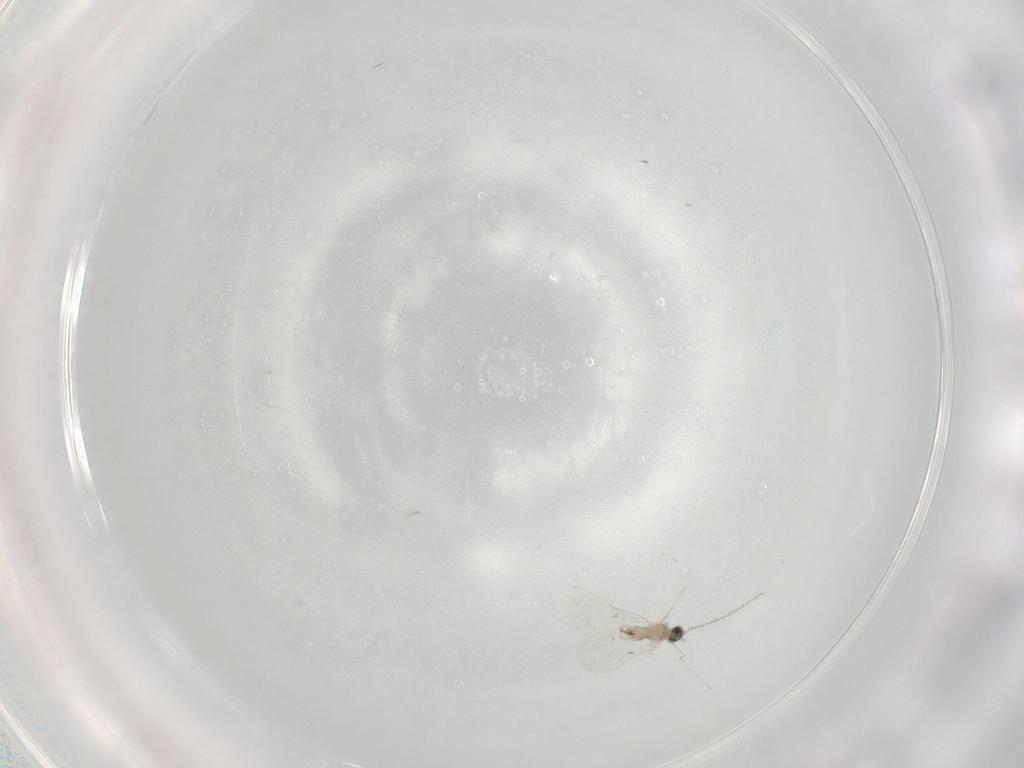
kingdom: Animalia
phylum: Arthropoda
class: Insecta
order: Diptera
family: Cecidomyiidae
